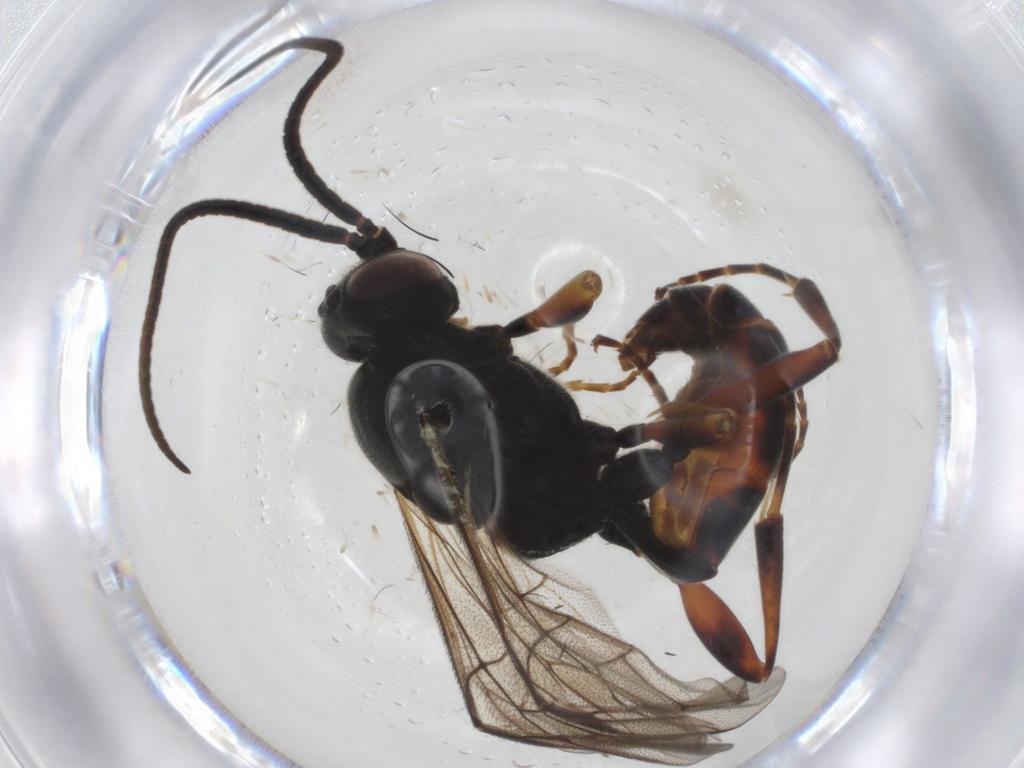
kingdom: Animalia
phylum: Arthropoda
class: Insecta
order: Hymenoptera
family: Ichneumonidae
